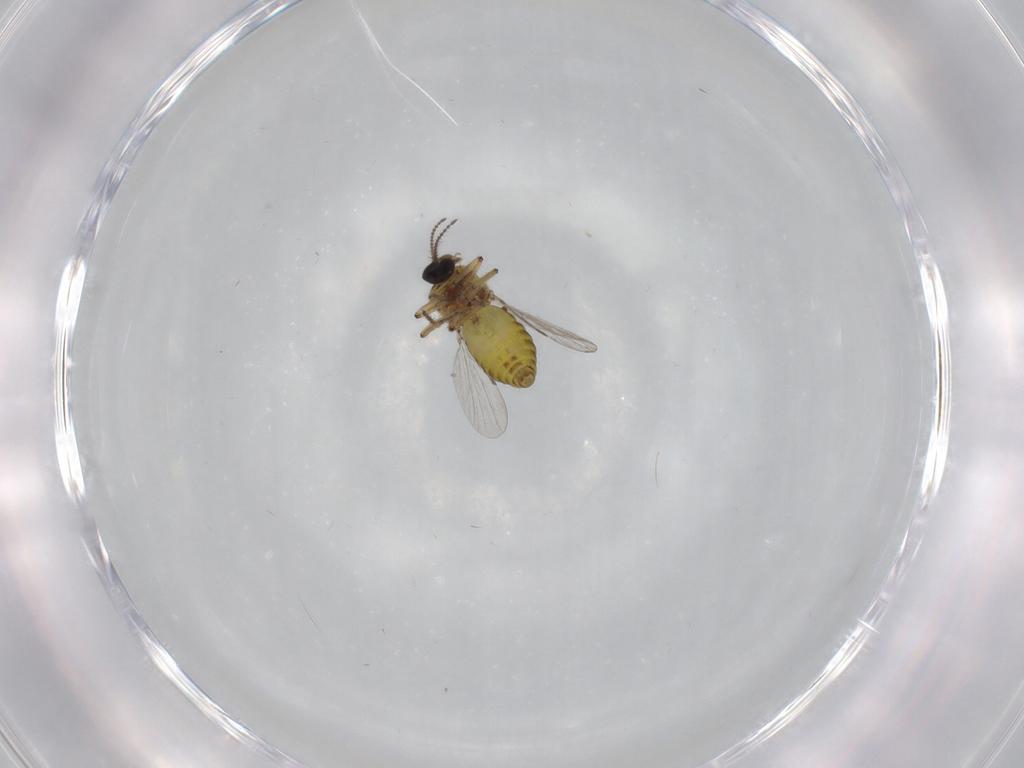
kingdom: Animalia
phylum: Arthropoda
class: Insecta
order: Diptera
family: Ceratopogonidae
